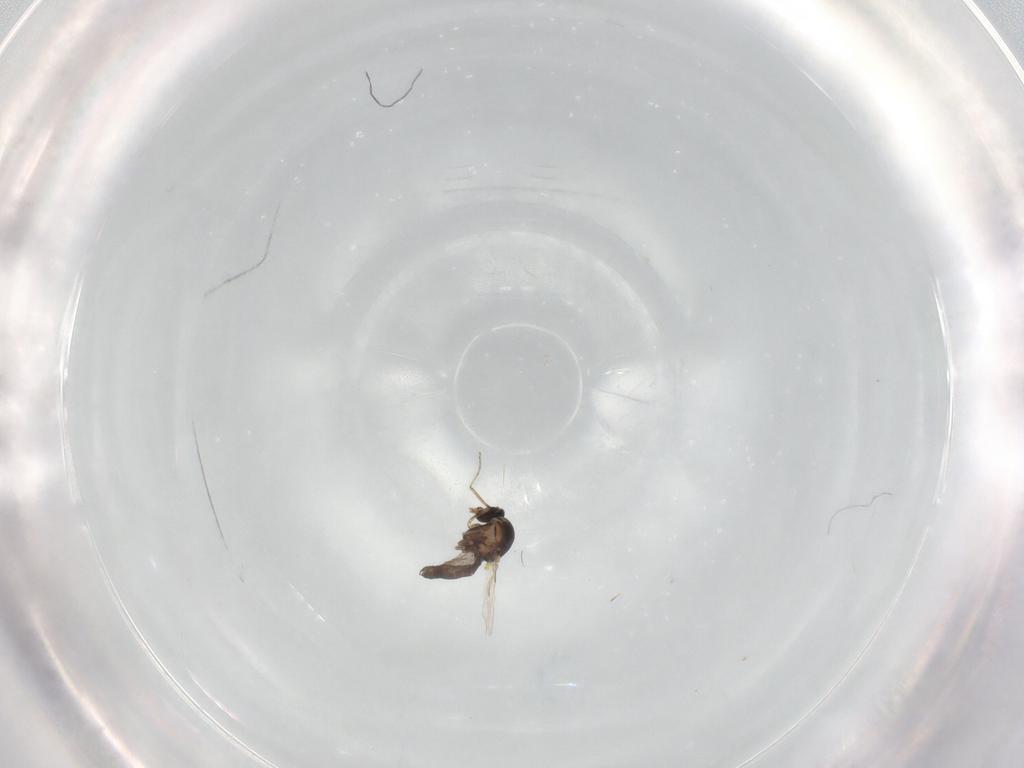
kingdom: Animalia
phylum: Arthropoda
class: Insecta
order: Diptera
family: Ceratopogonidae
